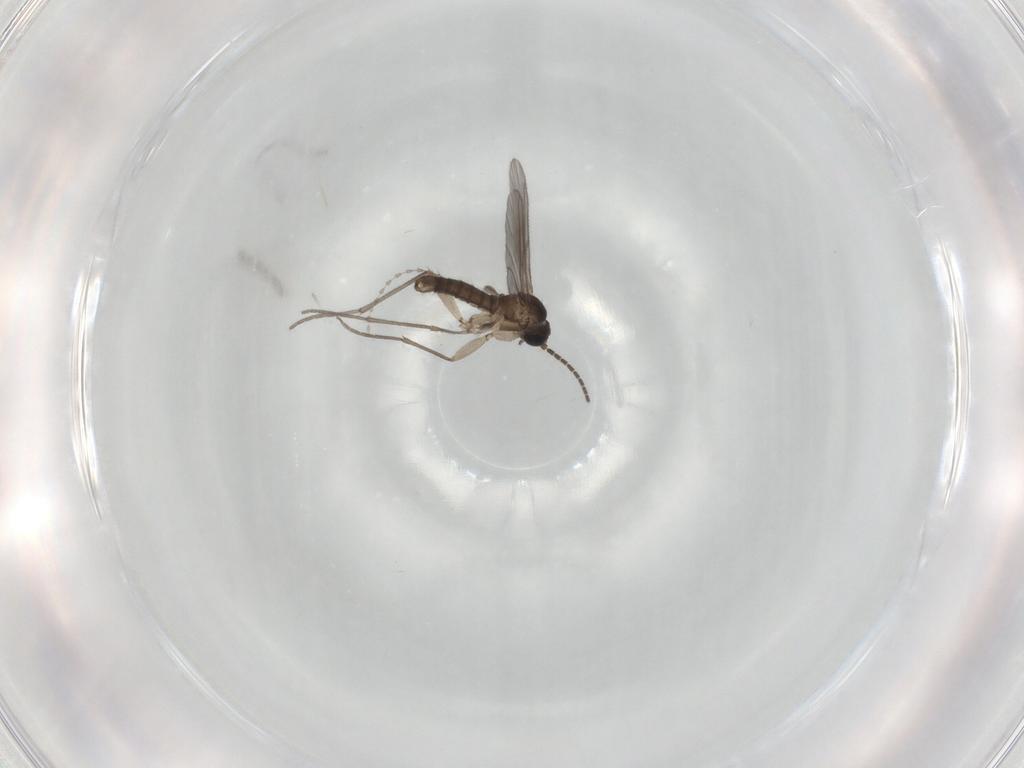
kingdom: Animalia
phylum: Arthropoda
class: Insecta
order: Diptera
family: Sciaridae
